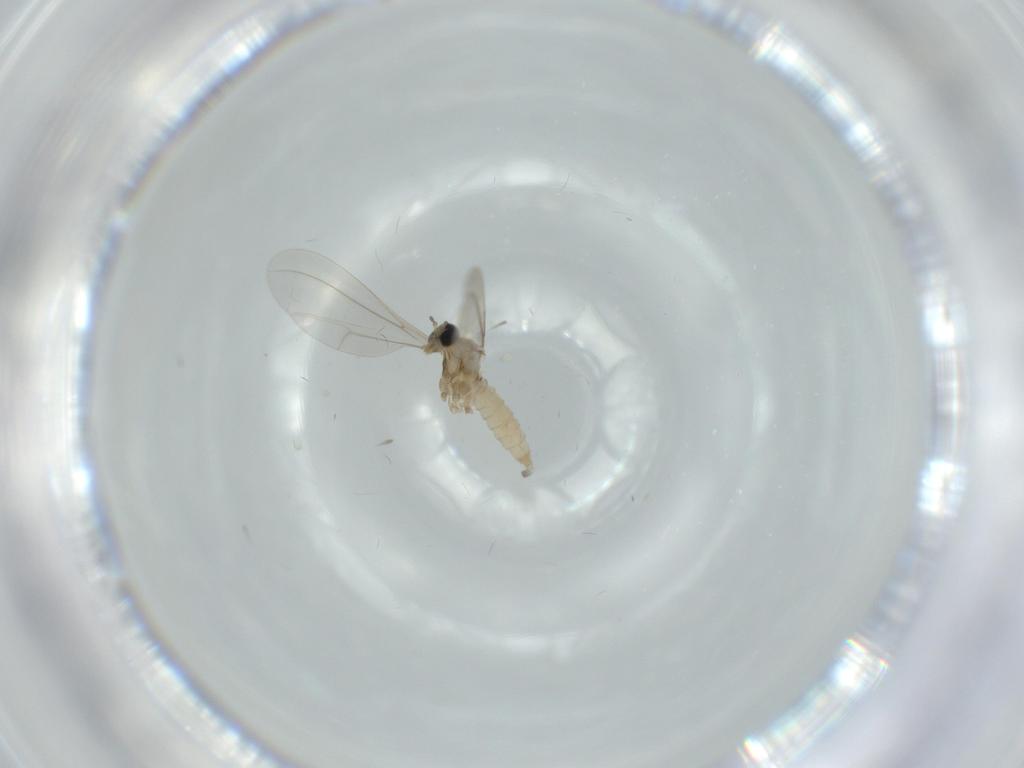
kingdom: Animalia
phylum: Arthropoda
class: Insecta
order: Diptera
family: Cecidomyiidae
